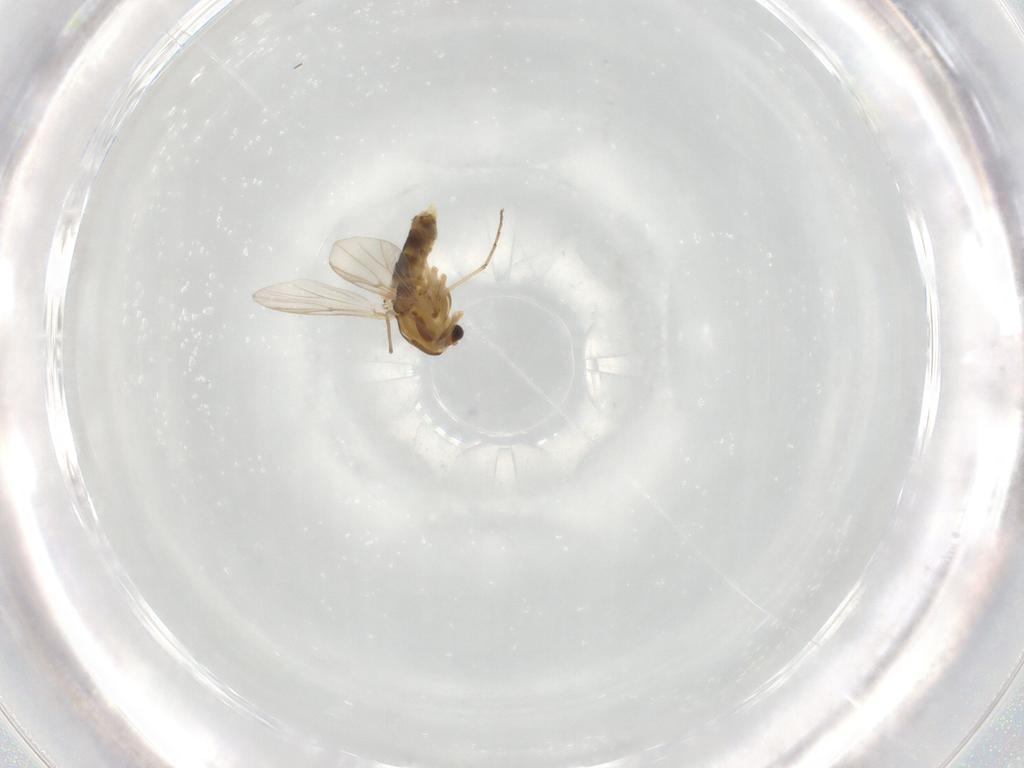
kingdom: Animalia
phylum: Arthropoda
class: Insecta
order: Diptera
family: Chironomidae
